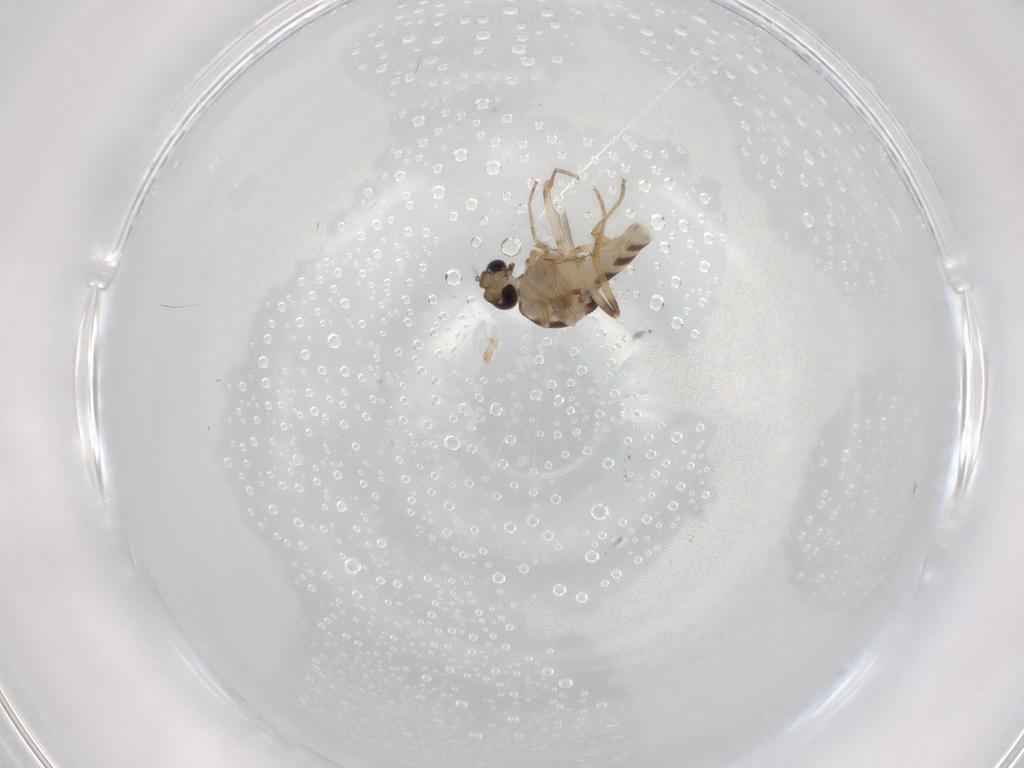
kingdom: Animalia
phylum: Arthropoda
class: Insecta
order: Diptera
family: Ceratopogonidae
